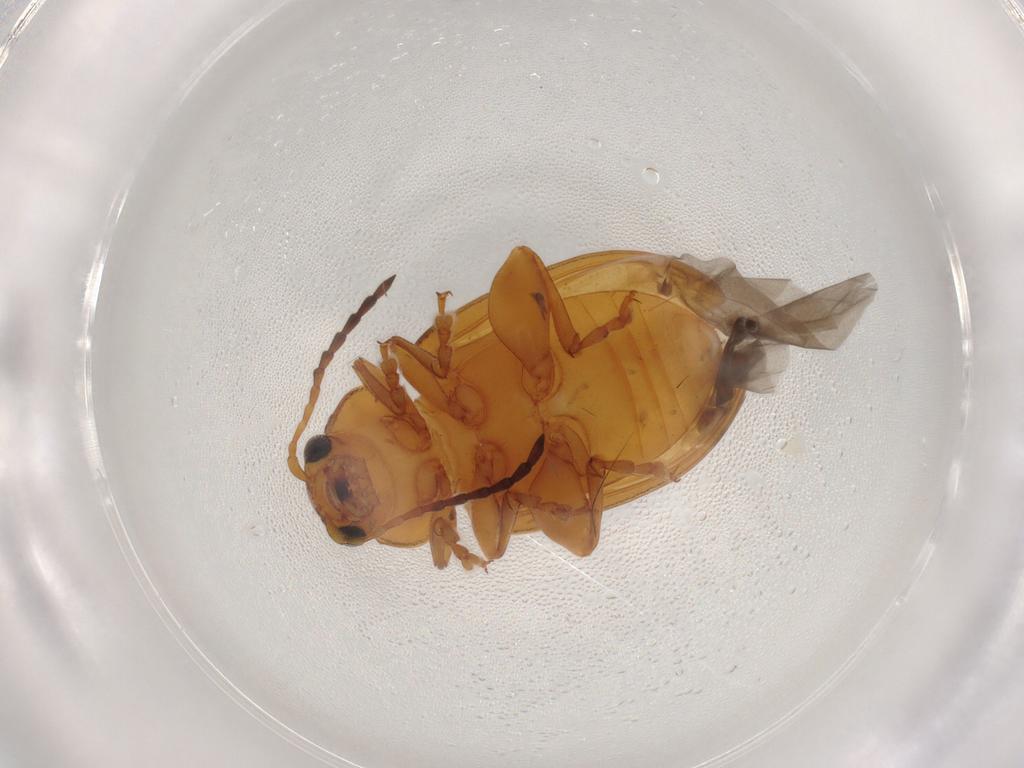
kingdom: Animalia
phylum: Arthropoda
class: Insecta
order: Coleoptera
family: Chrysomelidae
